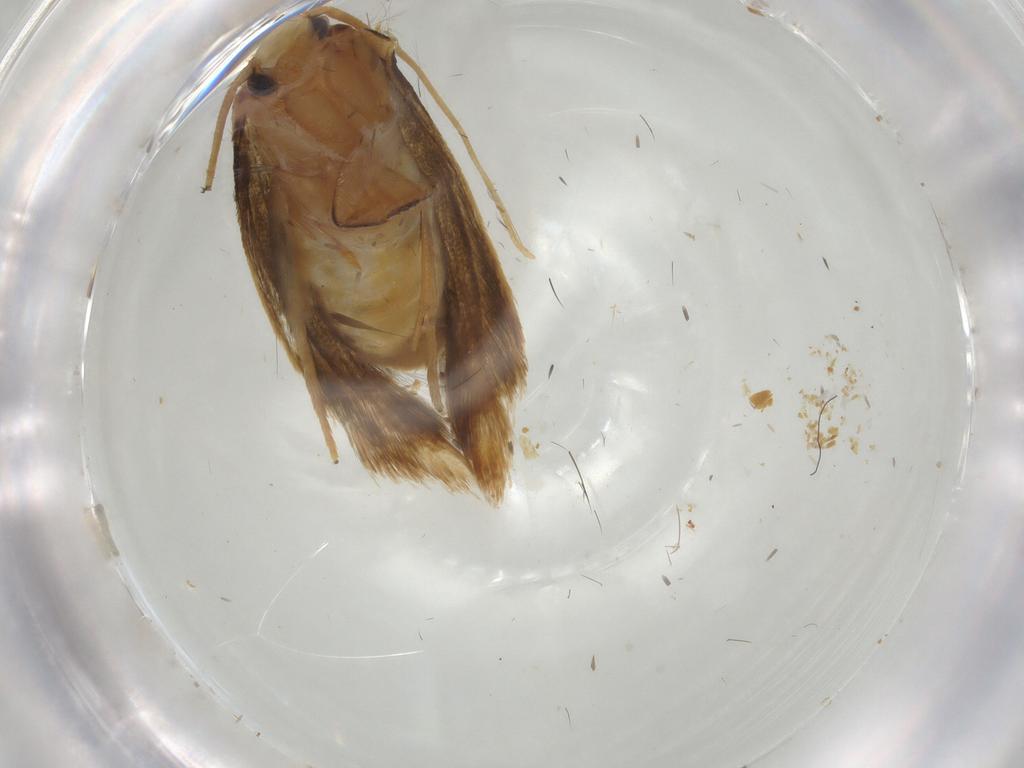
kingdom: Animalia
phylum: Arthropoda
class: Insecta
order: Lepidoptera
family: Tineidae
